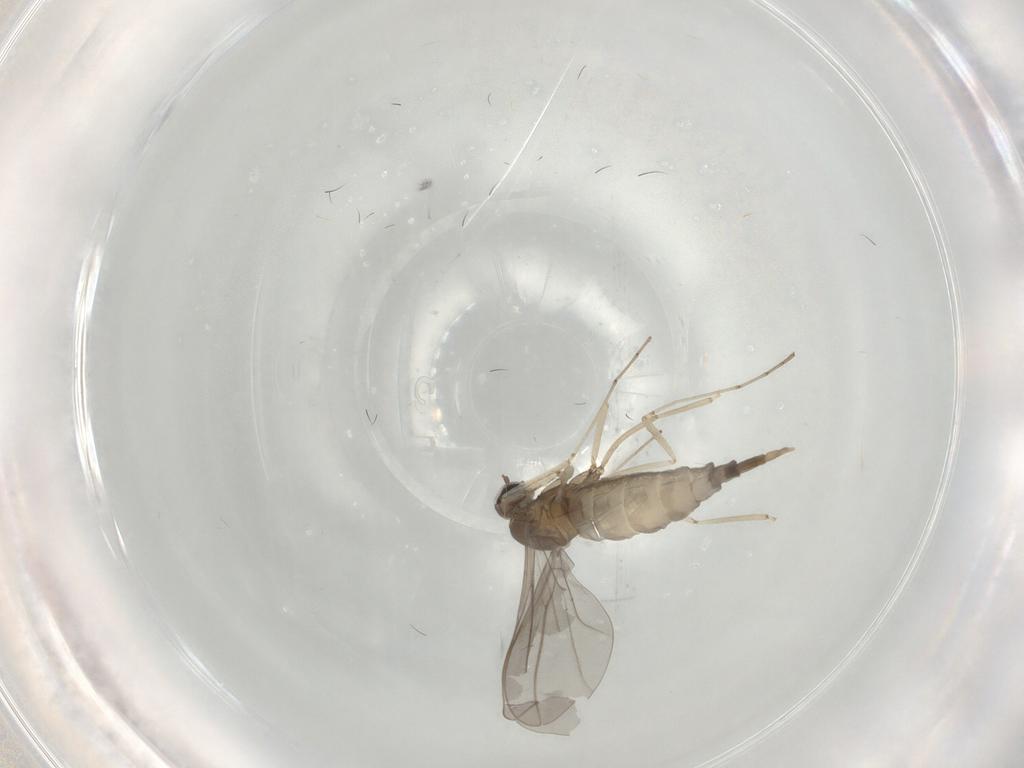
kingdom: Animalia
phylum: Arthropoda
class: Insecta
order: Diptera
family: Cecidomyiidae
